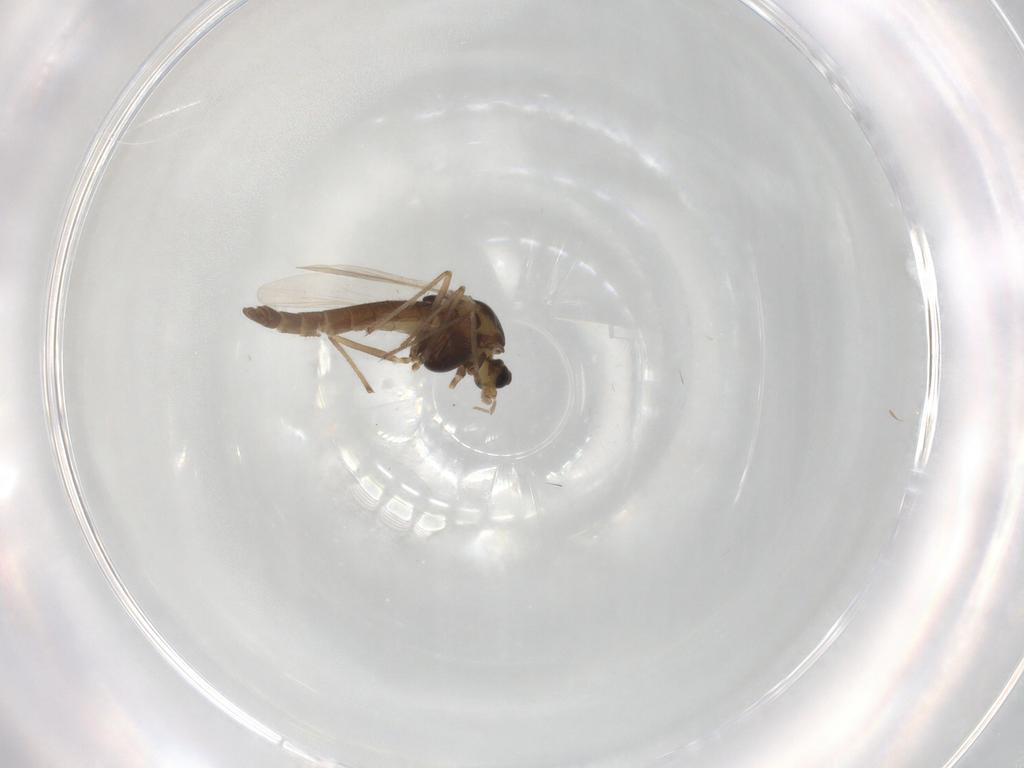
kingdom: Animalia
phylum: Arthropoda
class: Insecta
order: Diptera
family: Chironomidae
